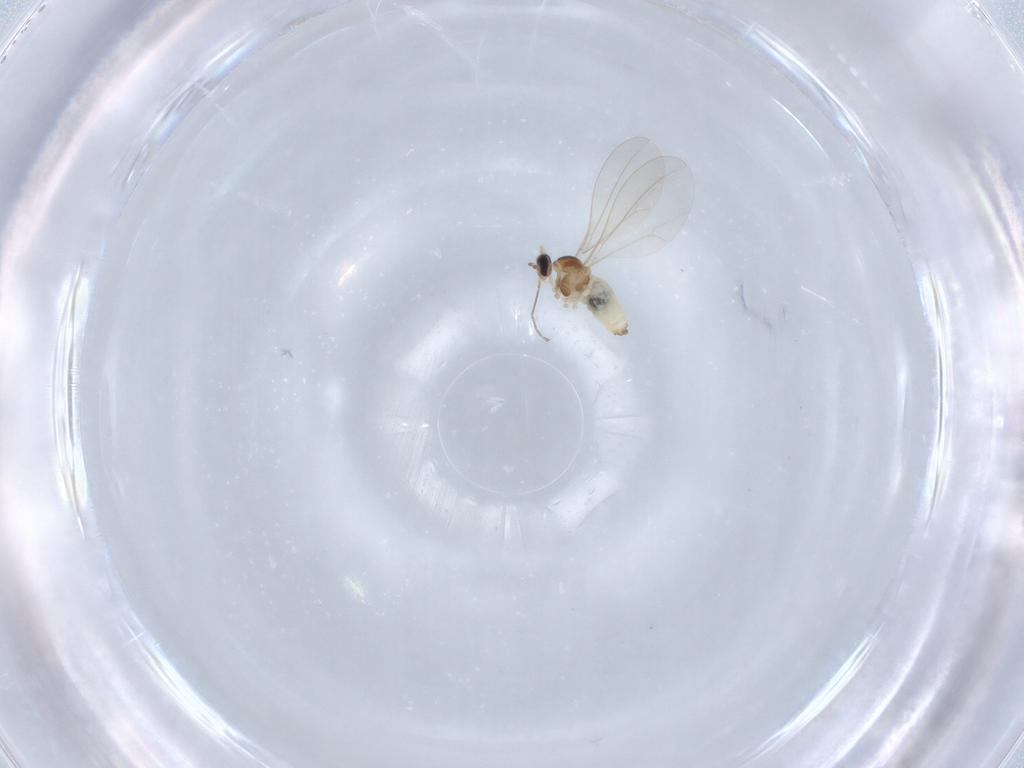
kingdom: Animalia
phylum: Arthropoda
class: Insecta
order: Diptera
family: Cecidomyiidae
